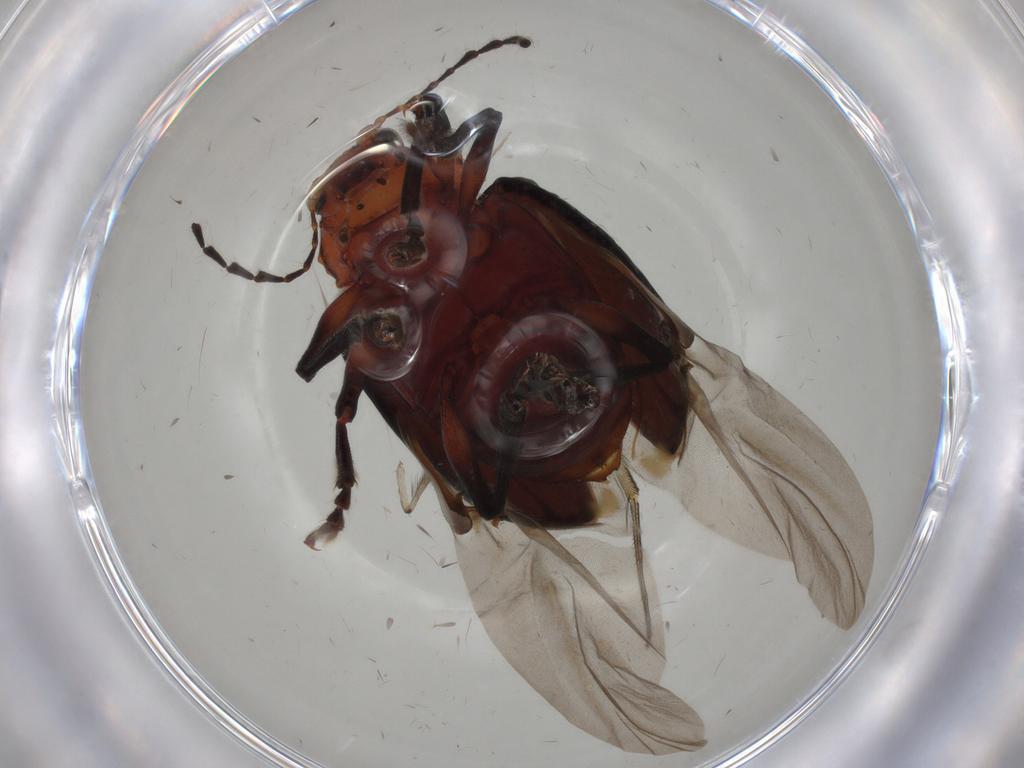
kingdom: Animalia
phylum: Arthropoda
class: Insecta
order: Coleoptera
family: Chrysomelidae
